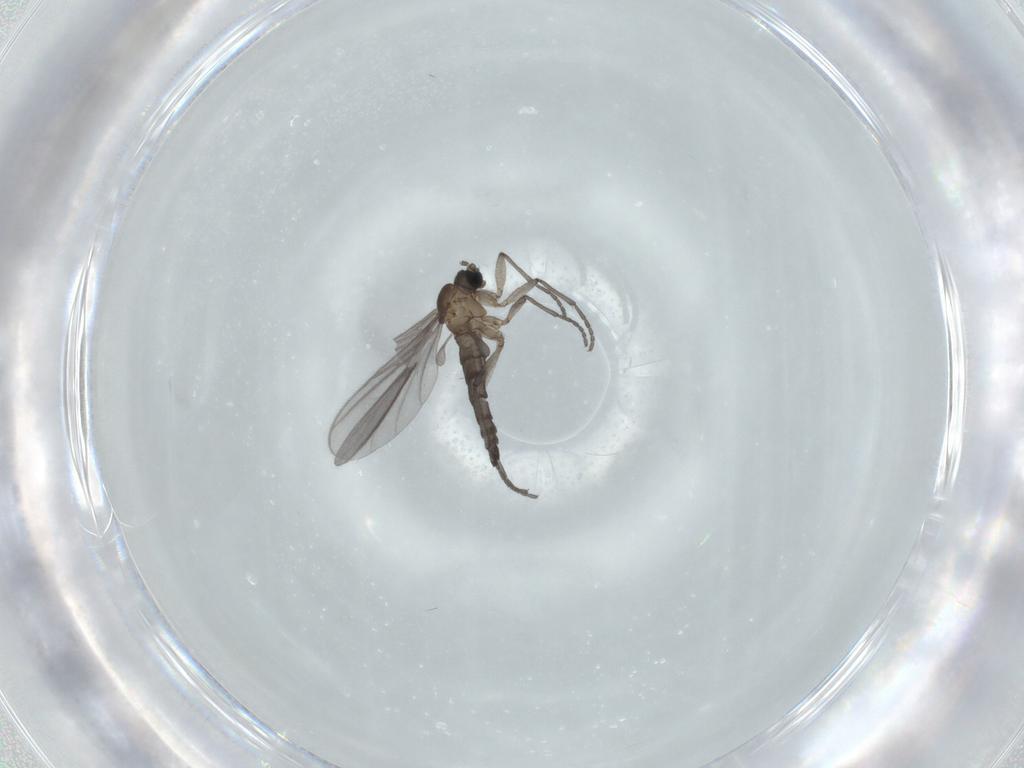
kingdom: Animalia
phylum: Arthropoda
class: Insecta
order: Diptera
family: Sciaridae
